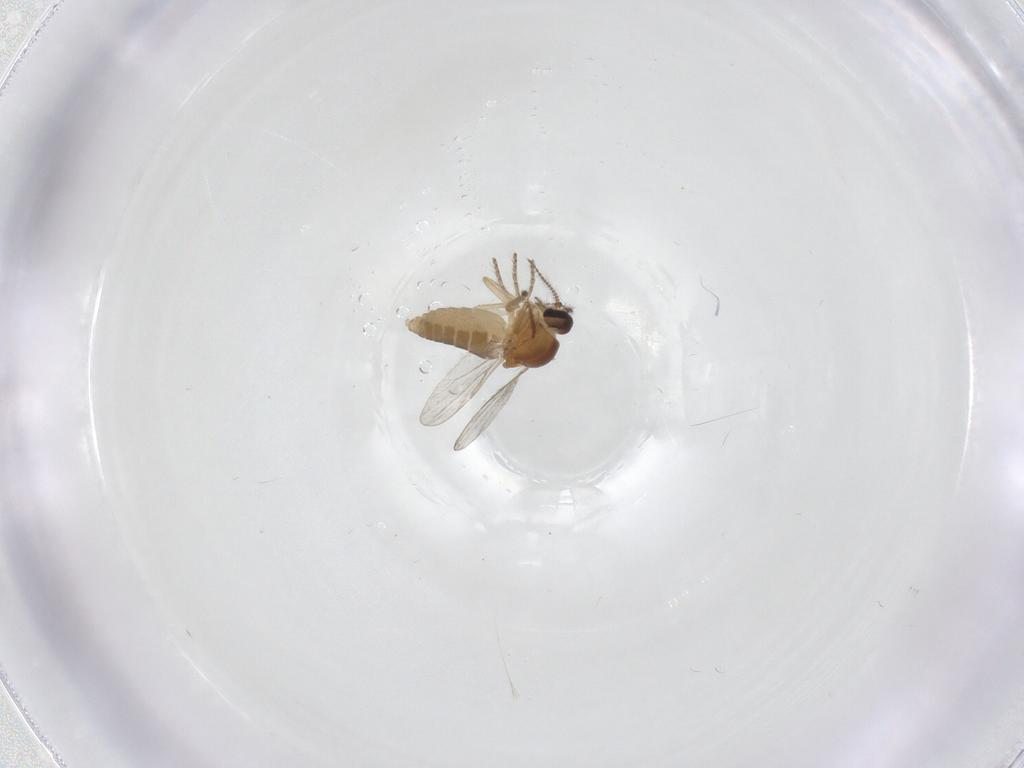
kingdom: Animalia
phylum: Arthropoda
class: Insecta
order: Diptera
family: Ceratopogonidae
